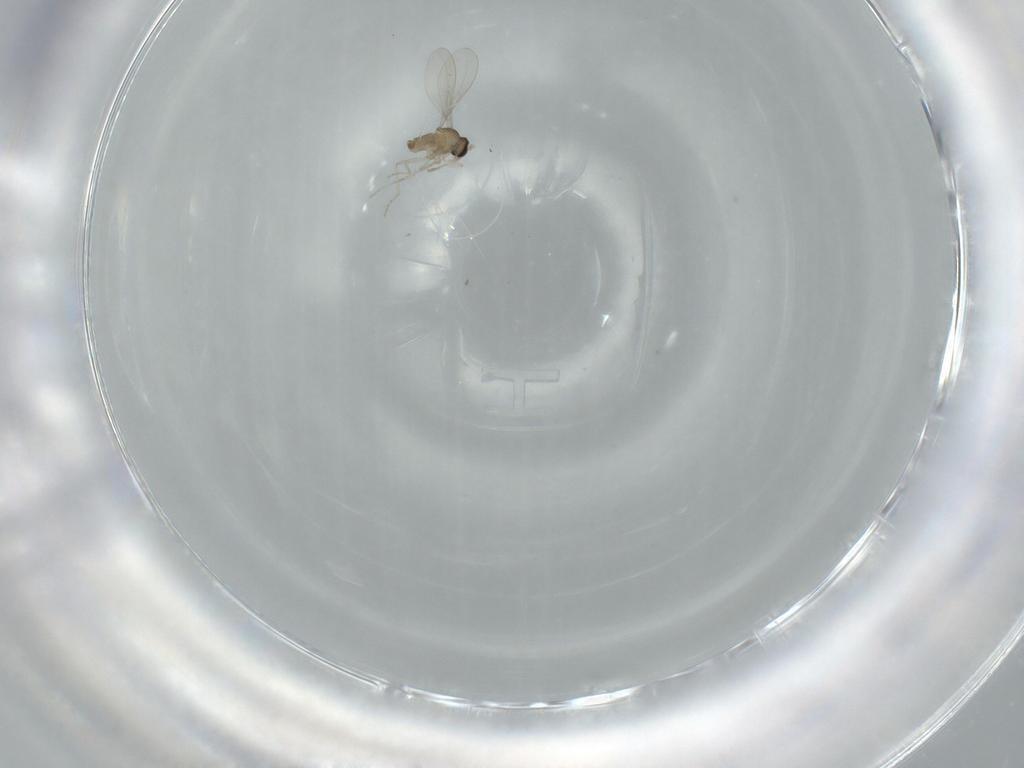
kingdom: Animalia
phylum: Arthropoda
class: Insecta
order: Diptera
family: Cecidomyiidae
